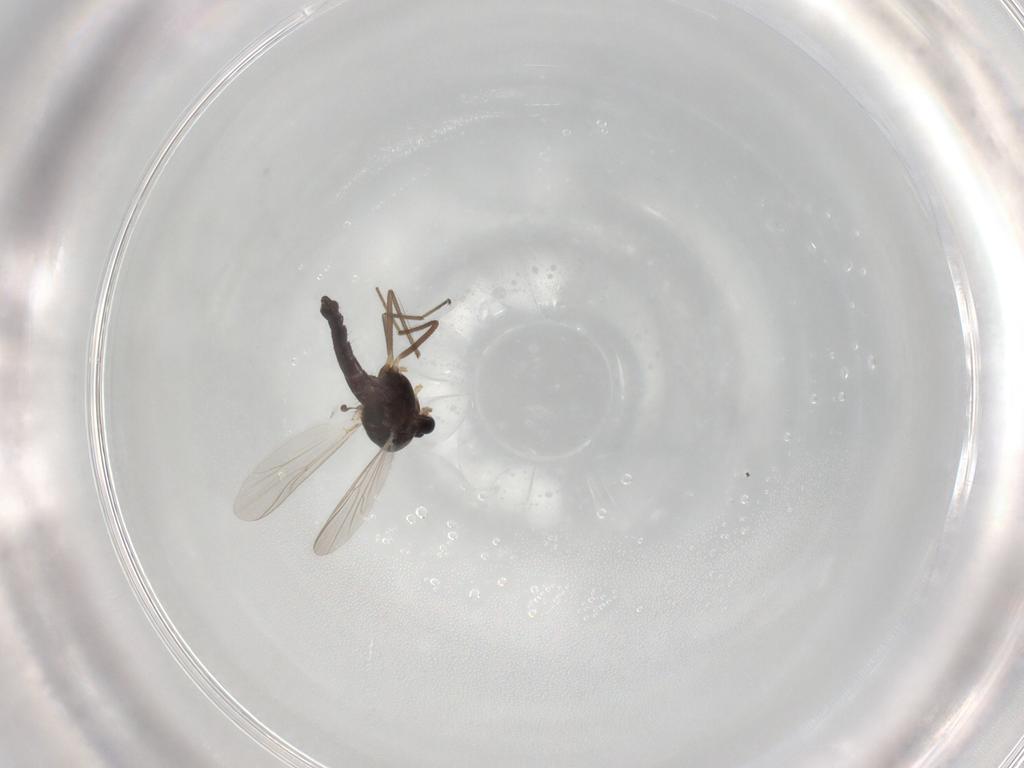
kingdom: Animalia
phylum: Arthropoda
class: Insecta
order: Diptera
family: Chironomidae
